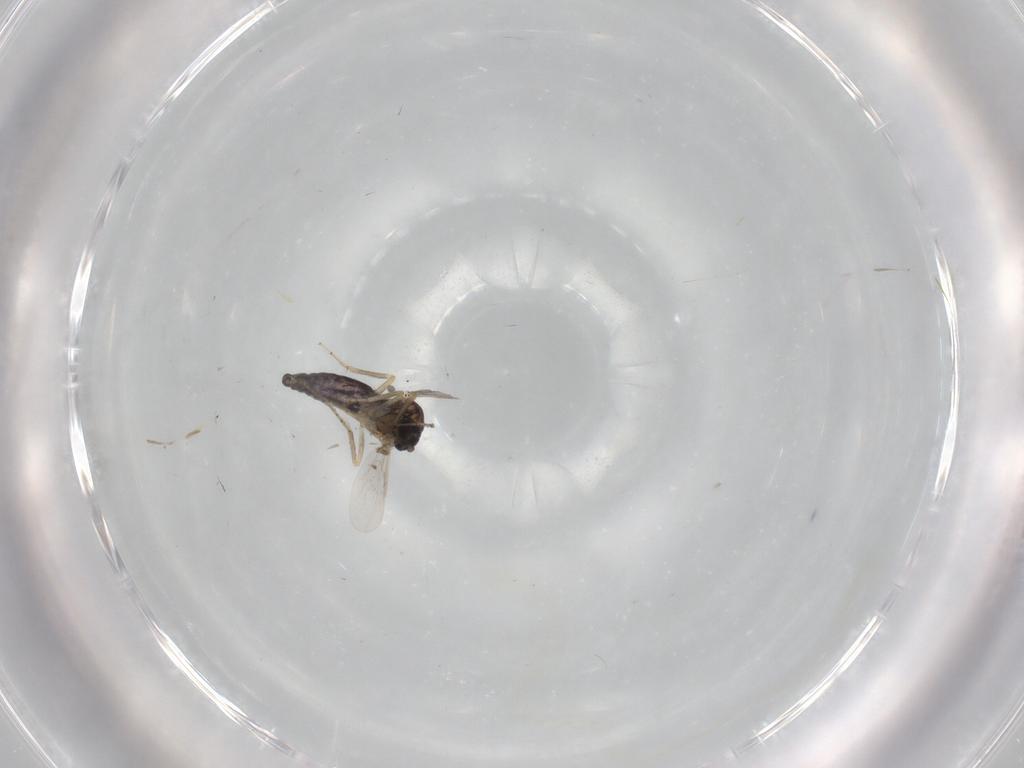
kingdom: Animalia
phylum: Arthropoda
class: Insecta
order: Diptera
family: Ceratopogonidae
